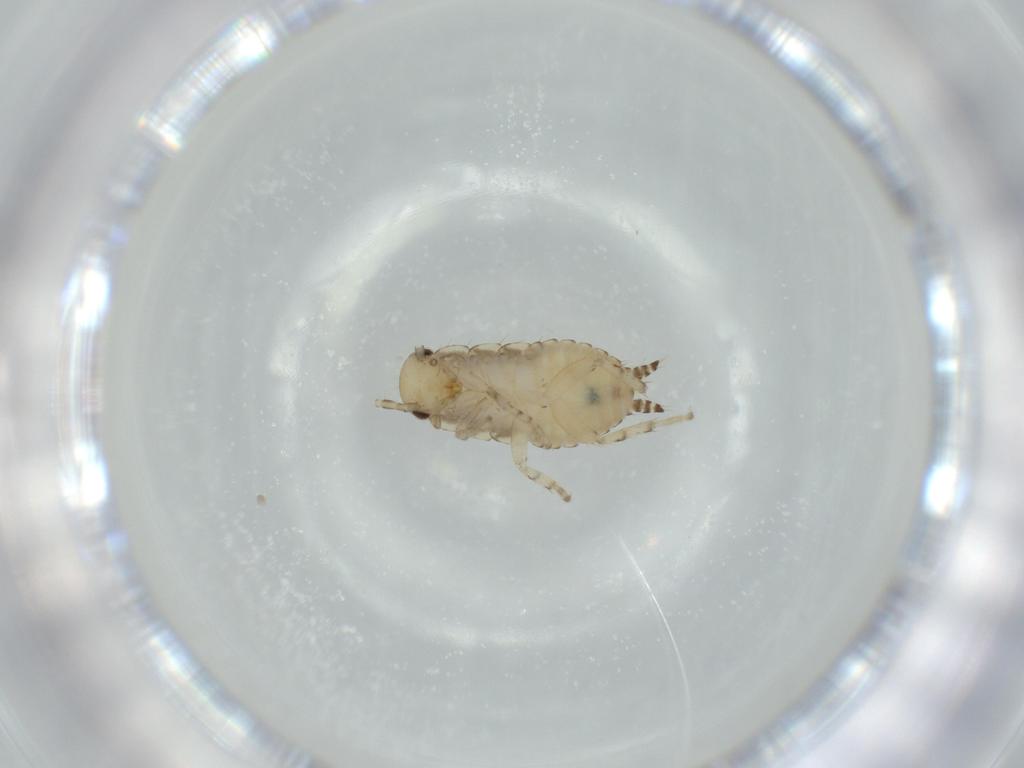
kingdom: Animalia
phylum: Arthropoda
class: Insecta
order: Blattodea
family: Ectobiidae
